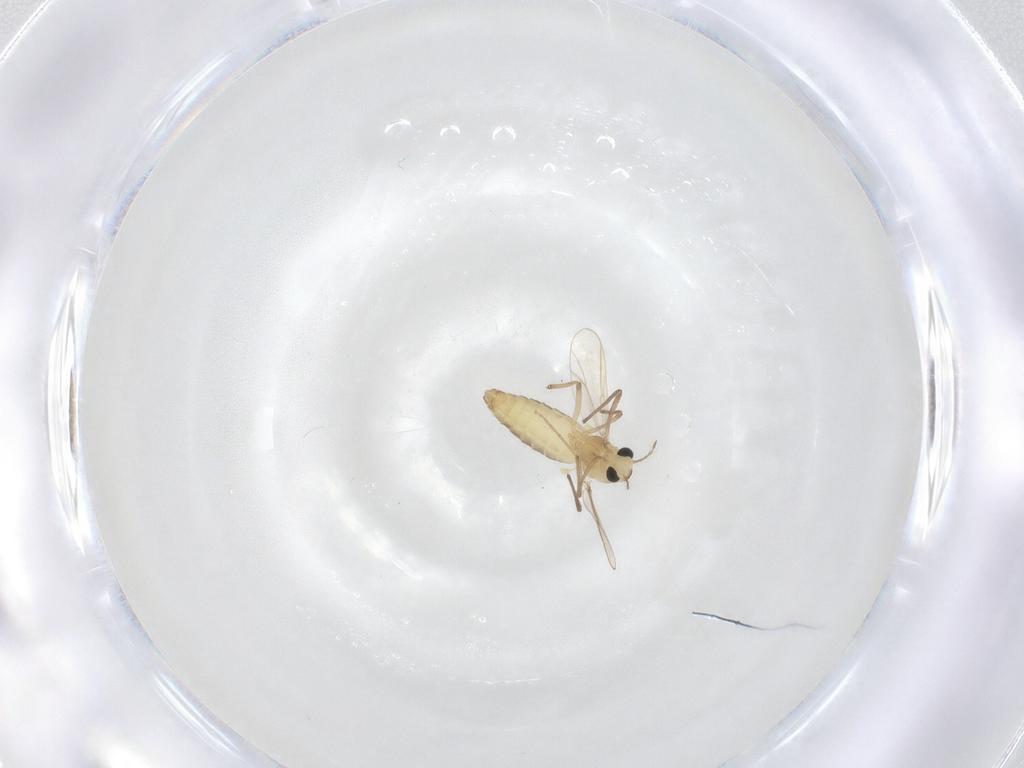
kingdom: Animalia
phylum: Arthropoda
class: Insecta
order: Diptera
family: Chironomidae
